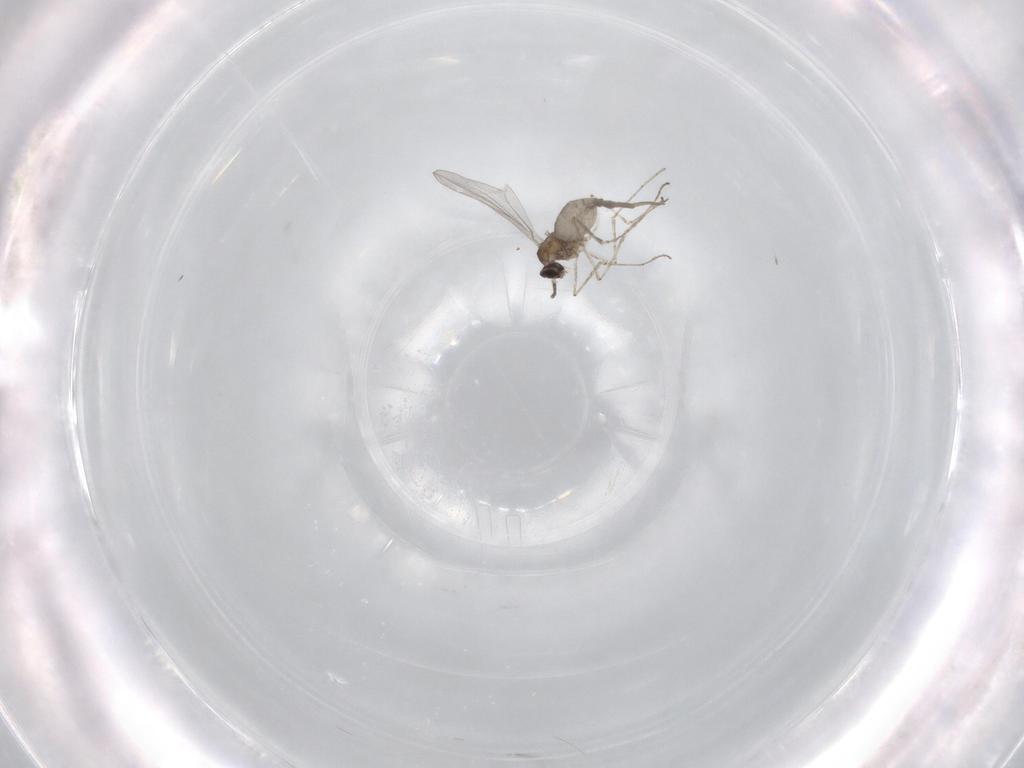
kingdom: Animalia
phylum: Arthropoda
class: Insecta
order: Diptera
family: Cecidomyiidae
